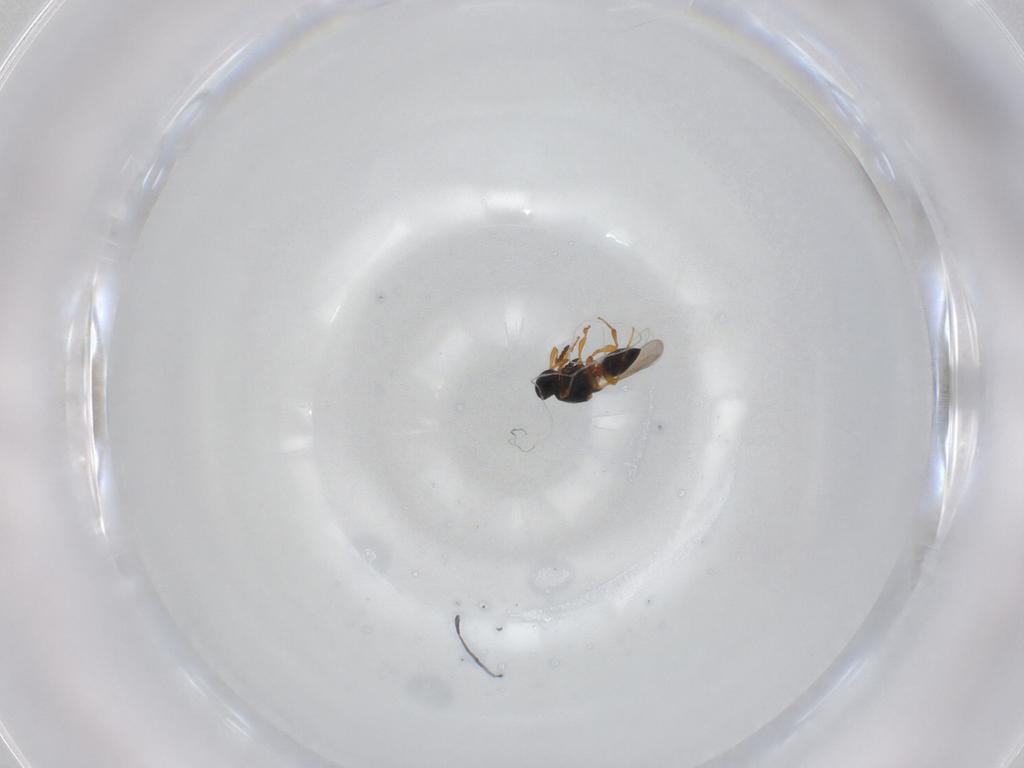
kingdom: Animalia
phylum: Arthropoda
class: Insecta
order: Hymenoptera
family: Platygastridae
